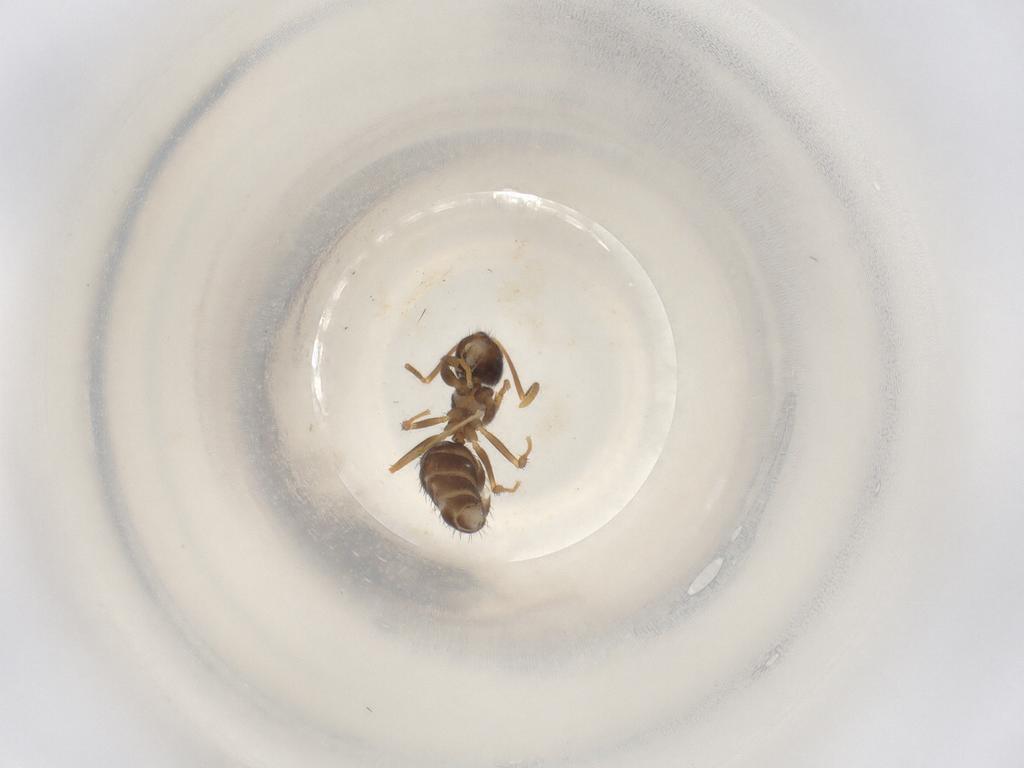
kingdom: Animalia
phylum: Arthropoda
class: Insecta
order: Hymenoptera
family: Formicidae
